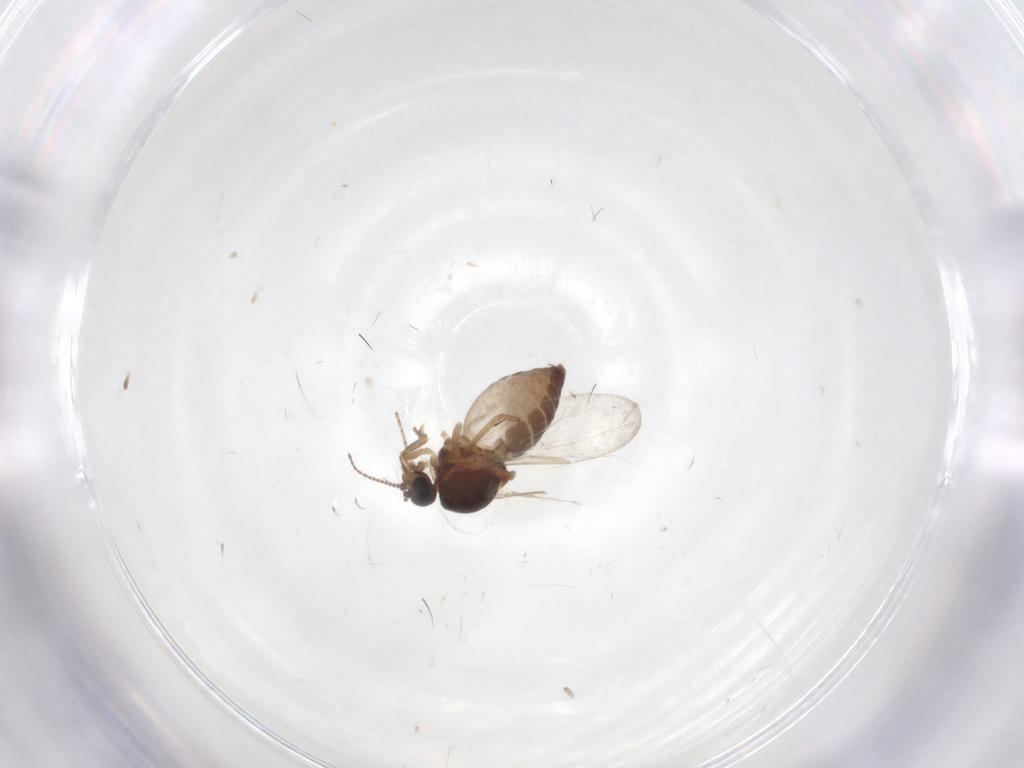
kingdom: Animalia
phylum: Arthropoda
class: Insecta
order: Diptera
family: Ceratopogonidae
